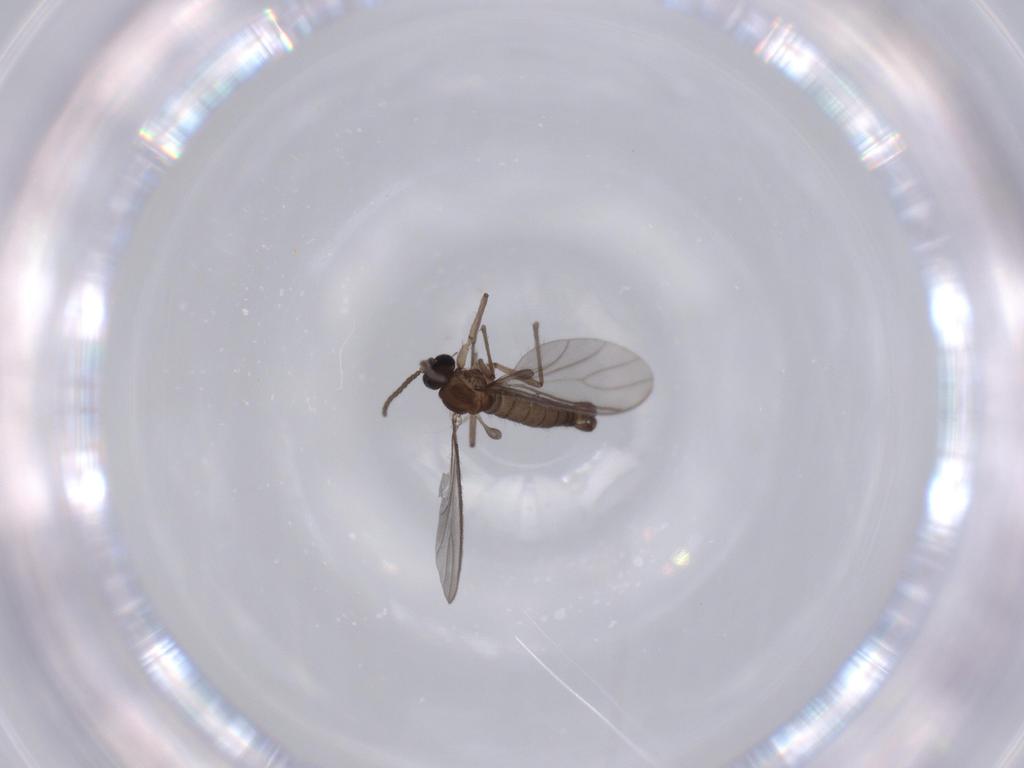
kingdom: Animalia
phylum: Arthropoda
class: Insecta
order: Diptera
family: Sciaridae
